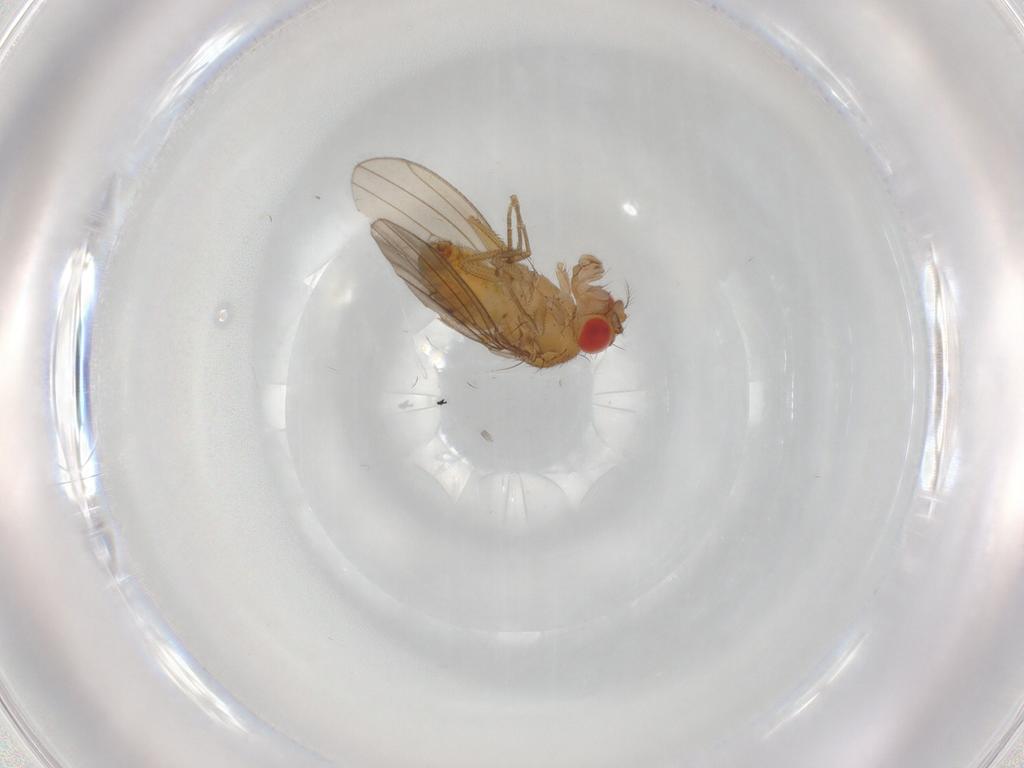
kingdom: Animalia
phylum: Arthropoda
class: Insecta
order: Diptera
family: Drosophilidae
